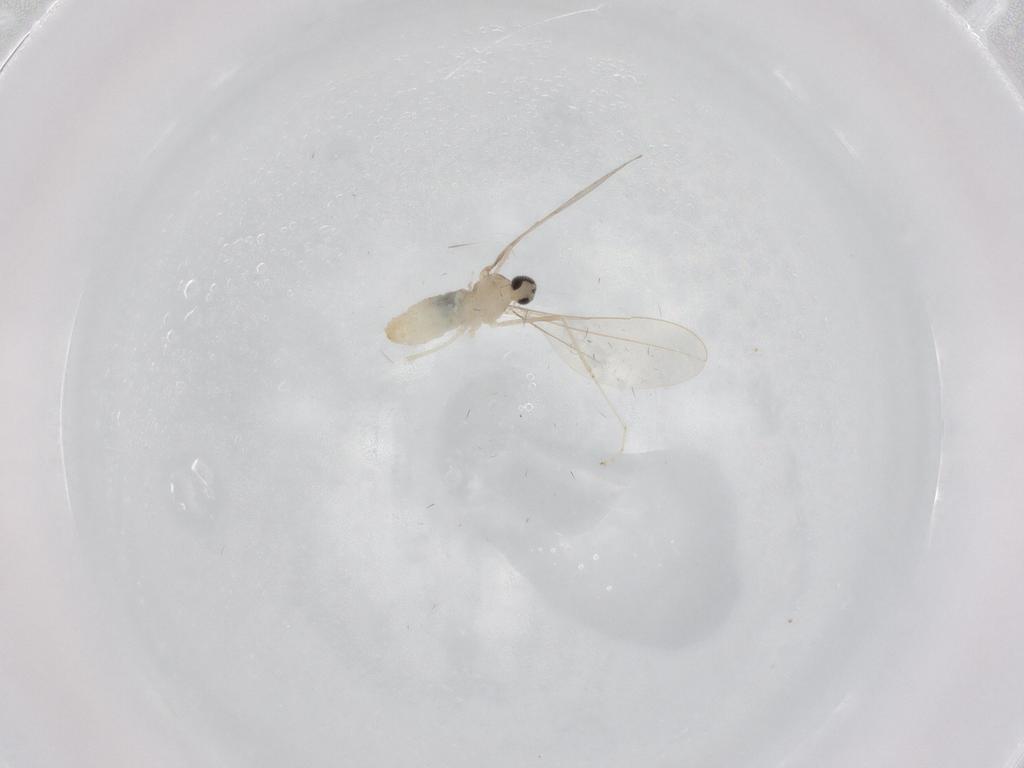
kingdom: Animalia
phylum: Arthropoda
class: Insecta
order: Diptera
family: Cecidomyiidae
